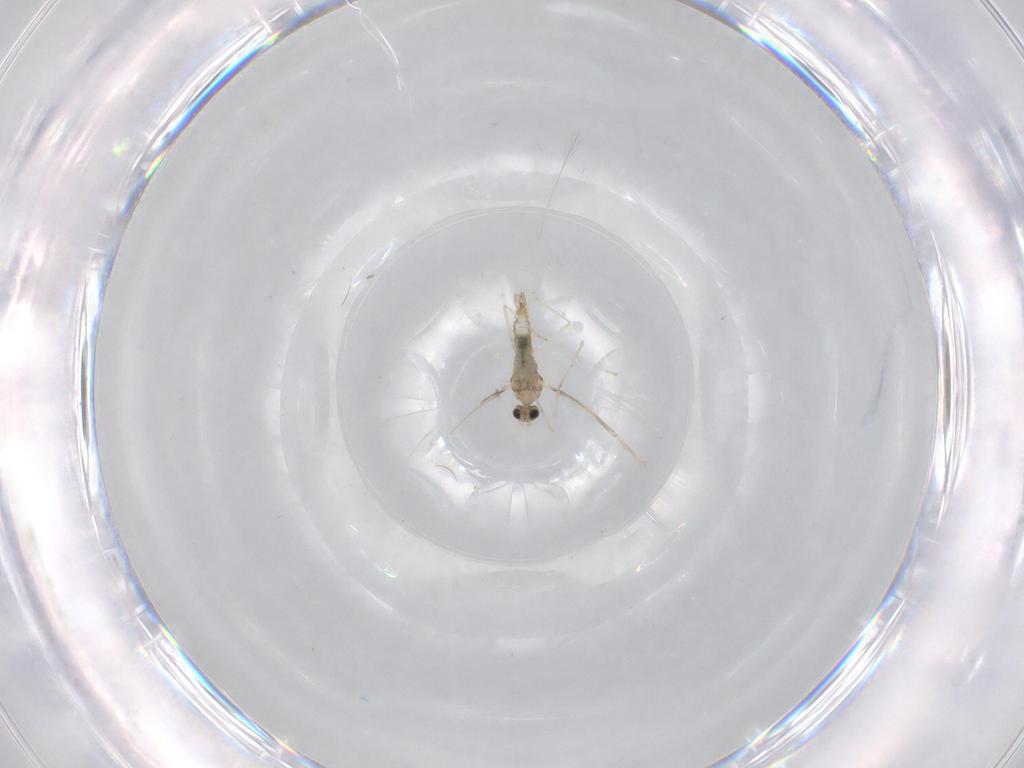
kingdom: Animalia
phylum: Arthropoda
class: Insecta
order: Diptera
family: Cecidomyiidae
